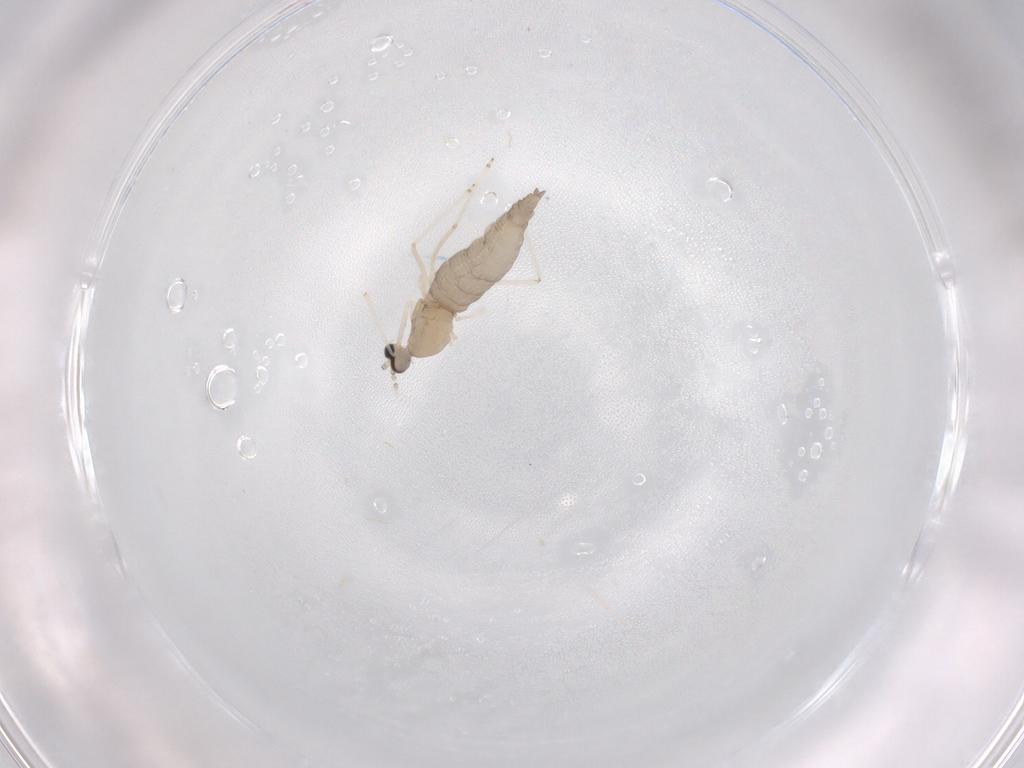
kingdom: Animalia
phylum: Arthropoda
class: Insecta
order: Diptera
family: Cecidomyiidae
